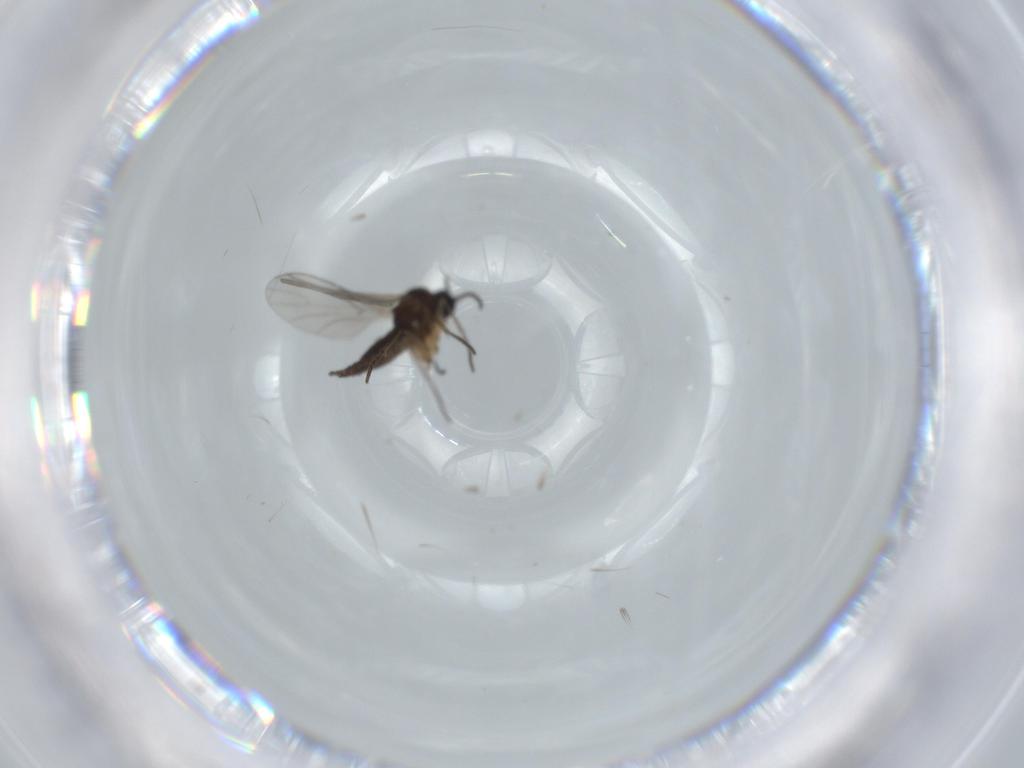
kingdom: Animalia
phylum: Arthropoda
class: Insecta
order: Diptera
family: Sciaridae
